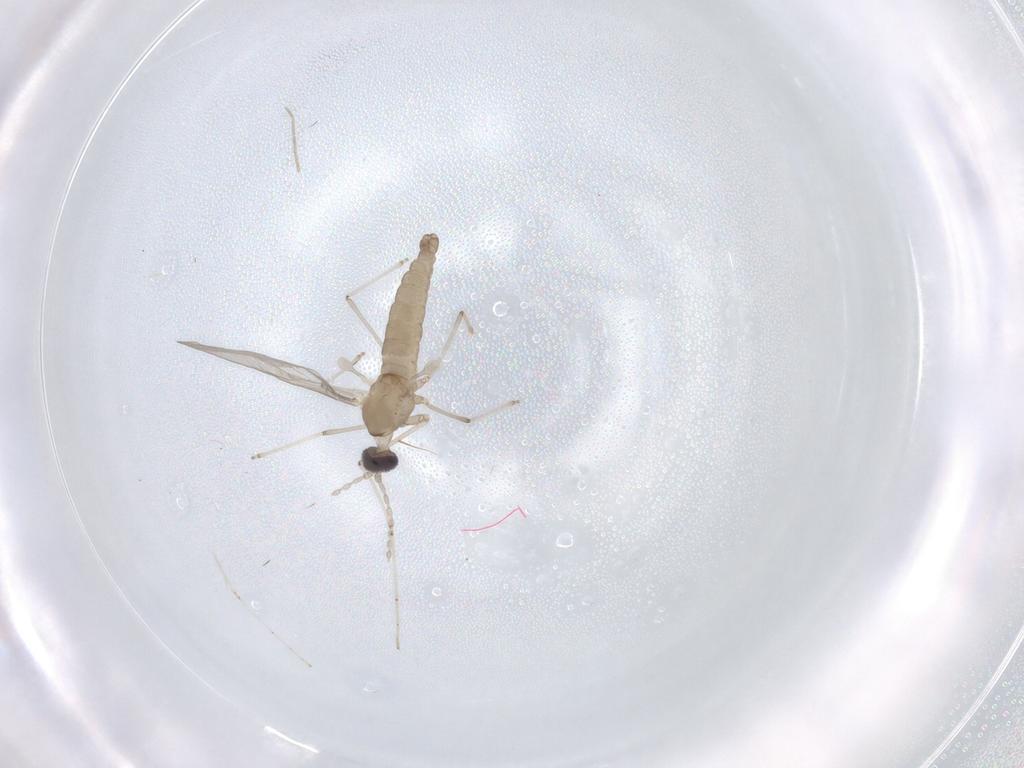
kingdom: Animalia
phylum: Arthropoda
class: Insecta
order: Diptera
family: Cecidomyiidae
